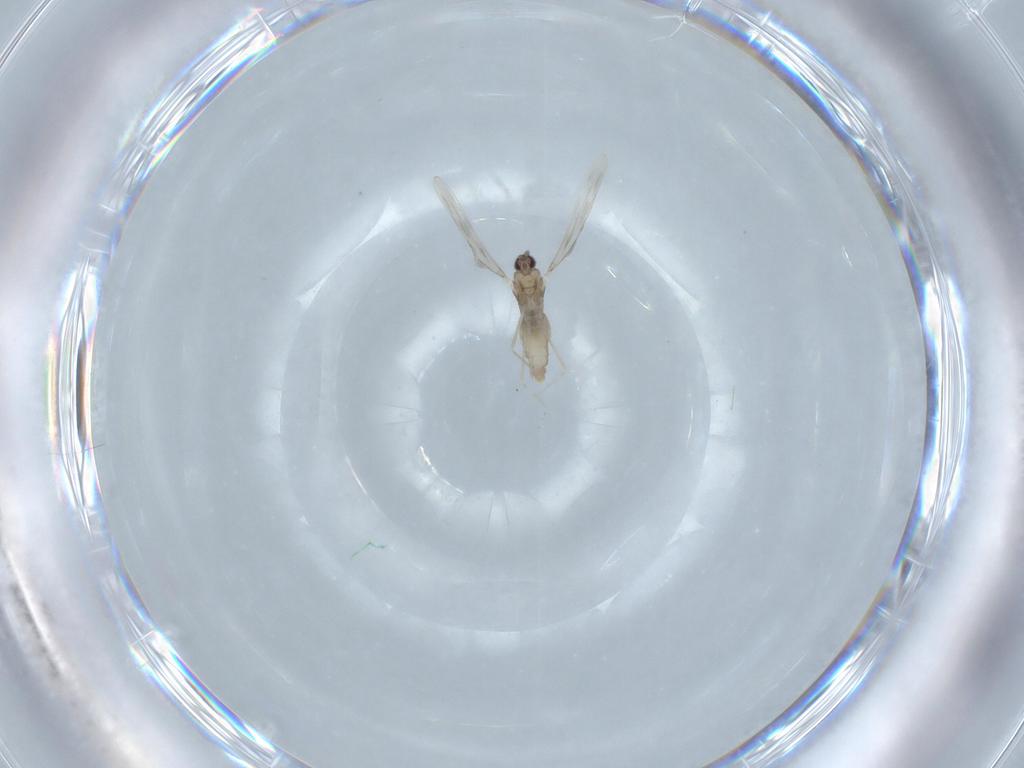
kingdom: Animalia
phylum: Arthropoda
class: Insecta
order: Diptera
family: Cecidomyiidae
